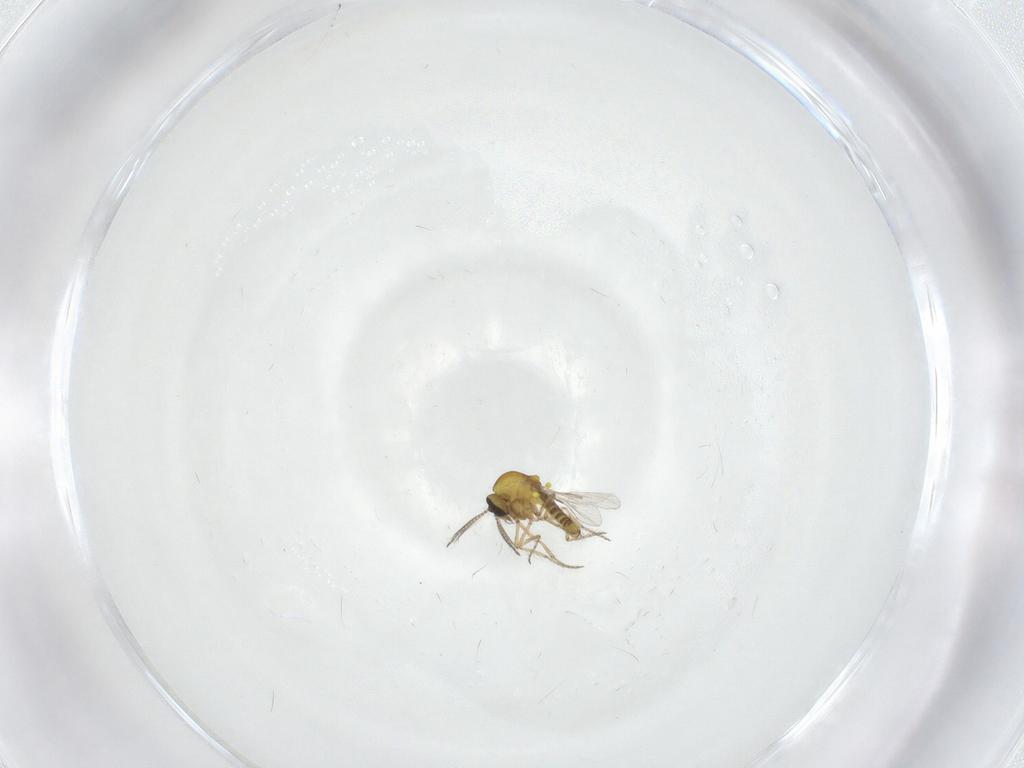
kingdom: Animalia
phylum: Arthropoda
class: Insecta
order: Diptera
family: Ceratopogonidae
